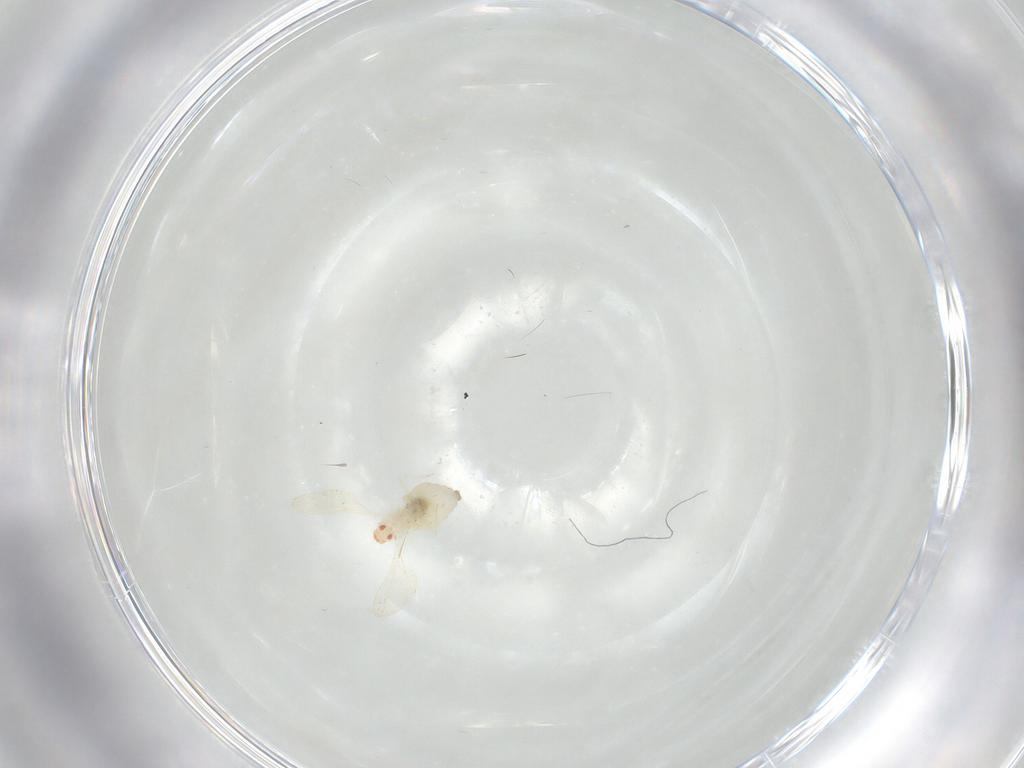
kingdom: Animalia
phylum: Arthropoda
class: Insecta
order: Diptera
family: Cecidomyiidae
